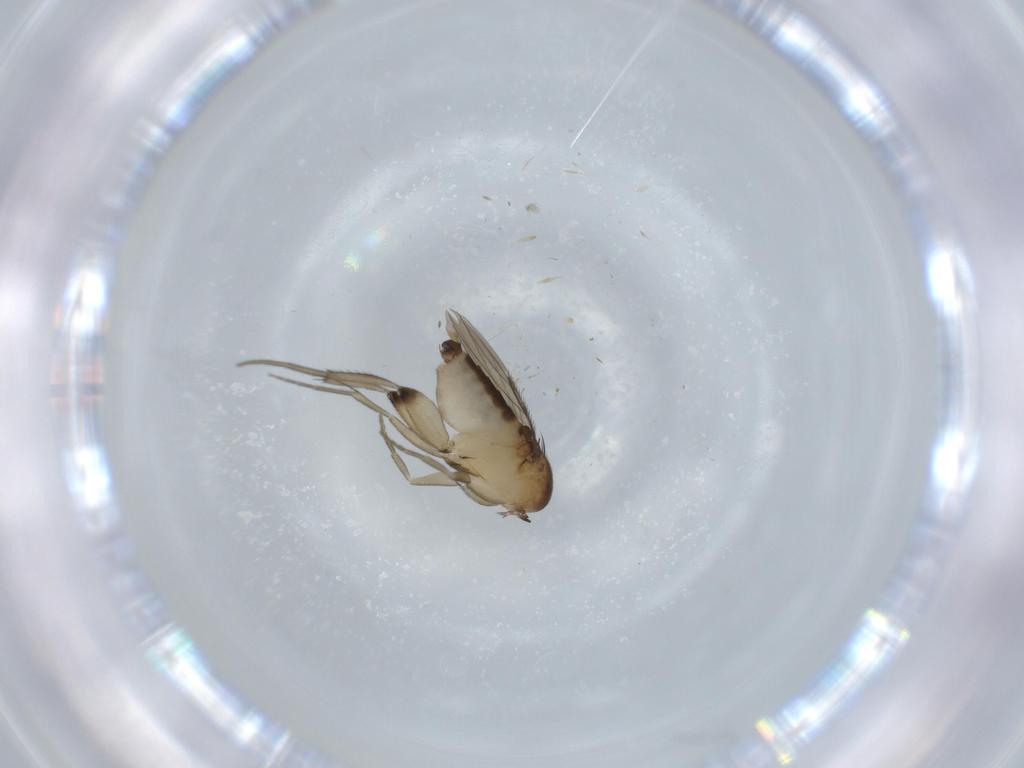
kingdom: Animalia
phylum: Arthropoda
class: Insecta
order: Diptera
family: Phoridae
